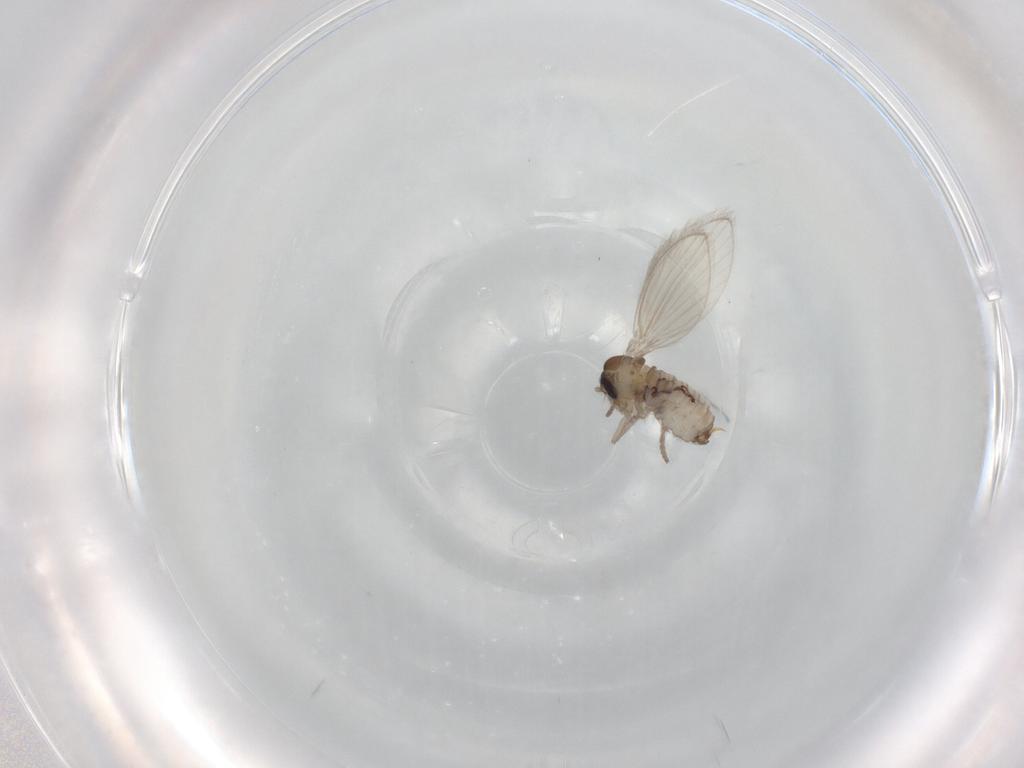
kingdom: Animalia
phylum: Arthropoda
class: Insecta
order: Diptera
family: Psychodidae
